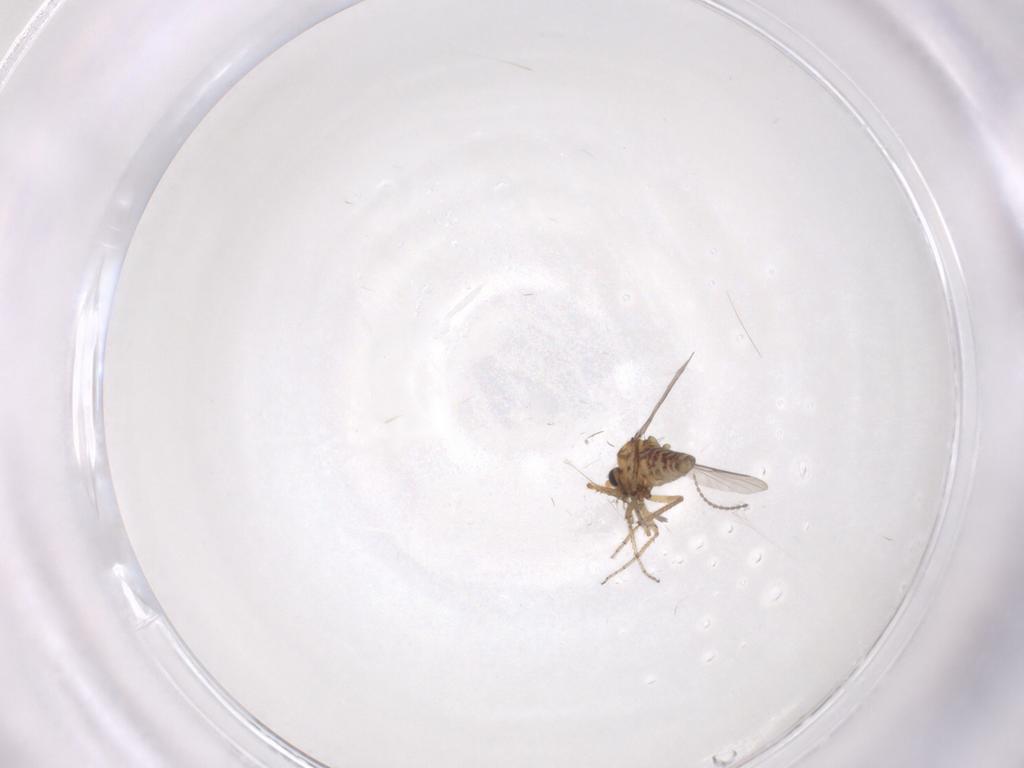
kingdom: Animalia
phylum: Arthropoda
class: Insecta
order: Diptera
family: Ceratopogonidae
